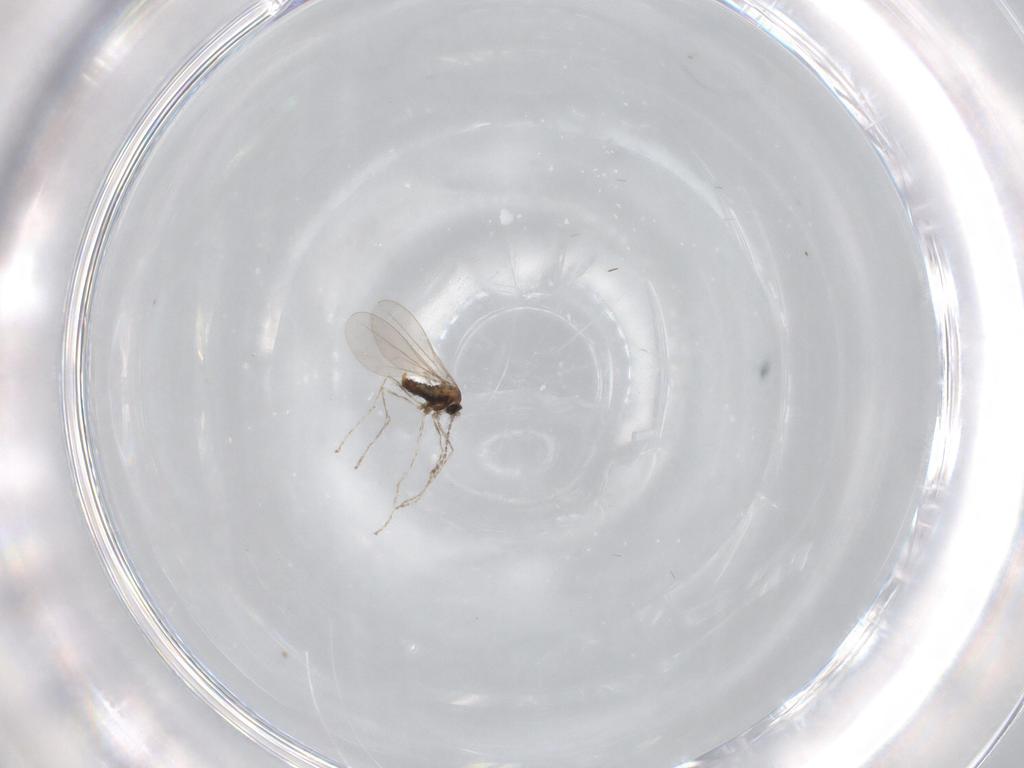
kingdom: Animalia
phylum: Arthropoda
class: Insecta
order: Diptera
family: Cecidomyiidae
